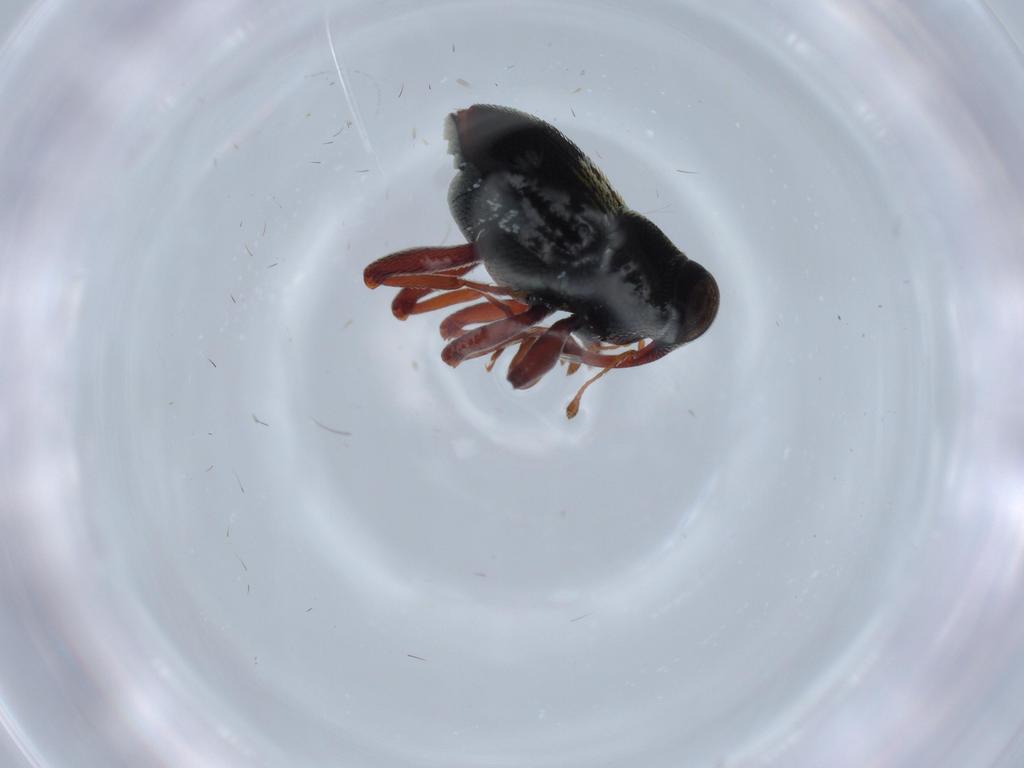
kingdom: Animalia
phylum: Arthropoda
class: Insecta
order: Coleoptera
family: Curculionidae
